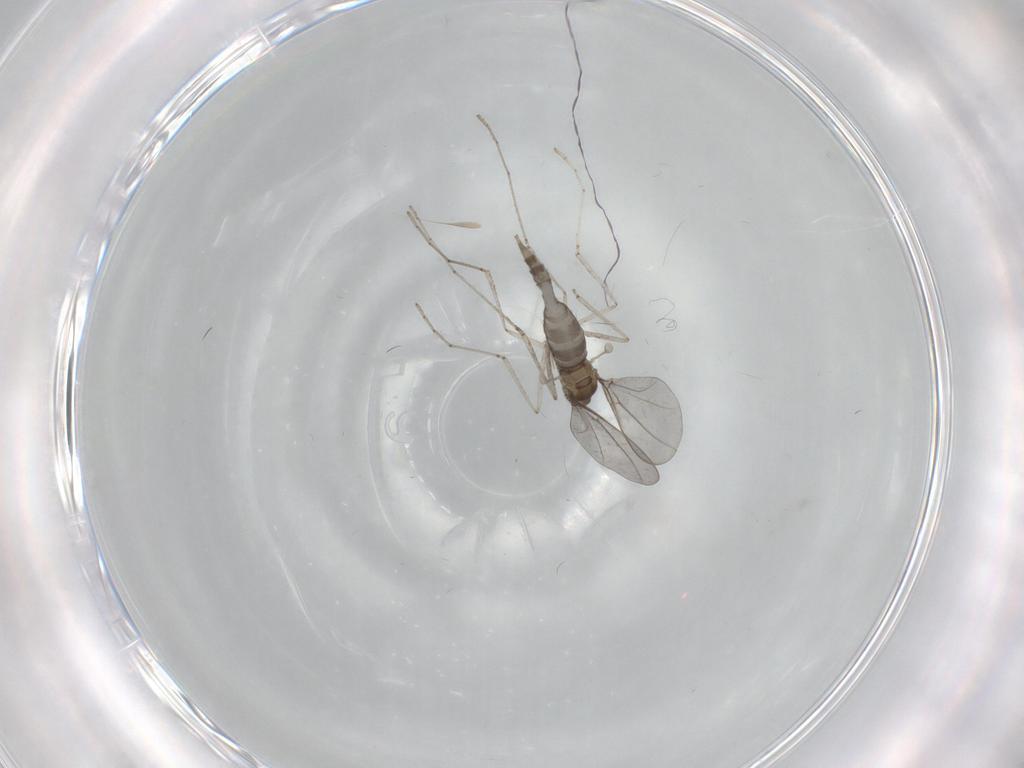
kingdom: Animalia
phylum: Arthropoda
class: Insecta
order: Diptera
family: Cecidomyiidae
